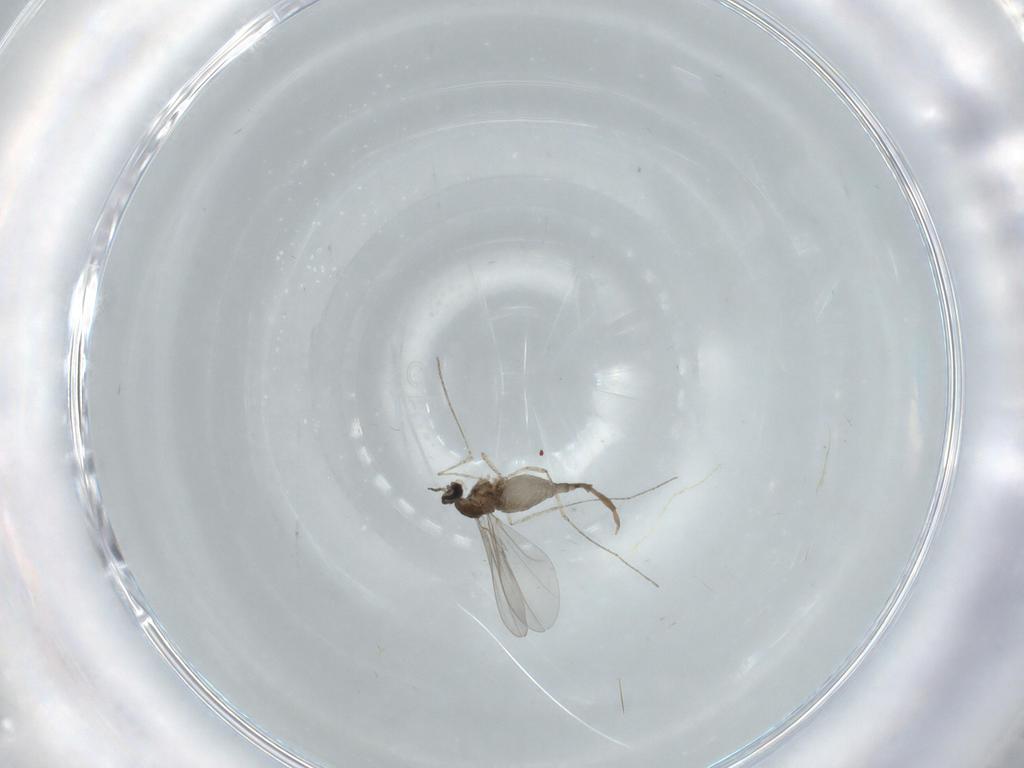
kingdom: Animalia
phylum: Arthropoda
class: Insecta
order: Diptera
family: Cecidomyiidae
